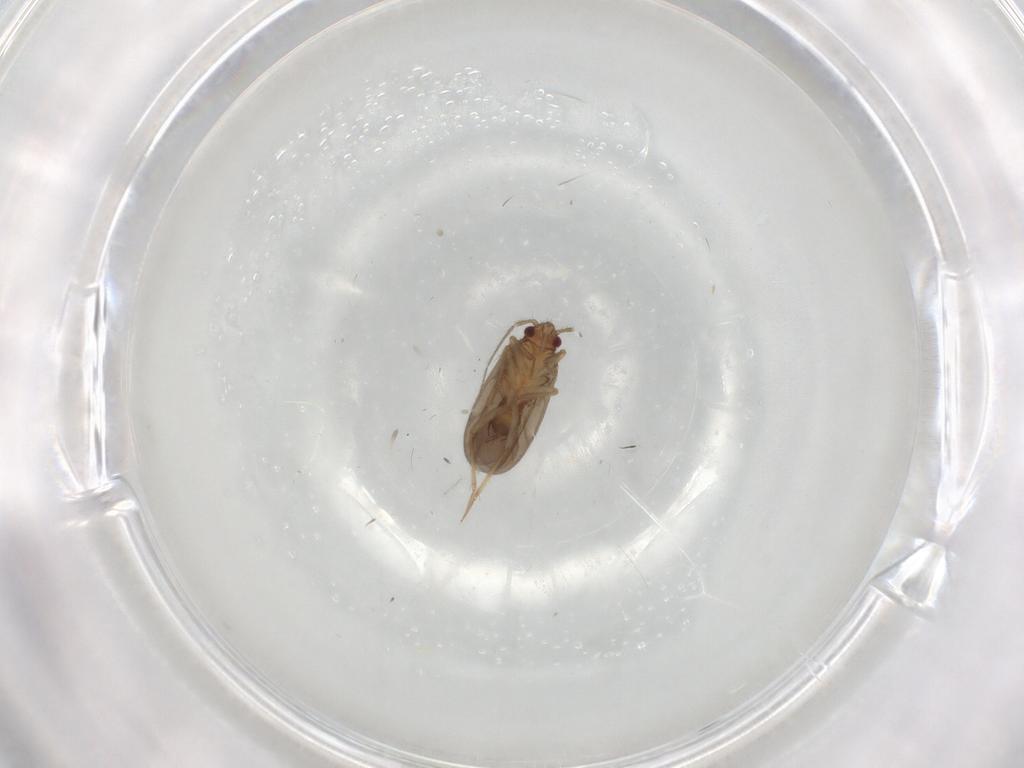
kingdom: Animalia
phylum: Arthropoda
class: Insecta
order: Hemiptera
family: Ceratocombidae
